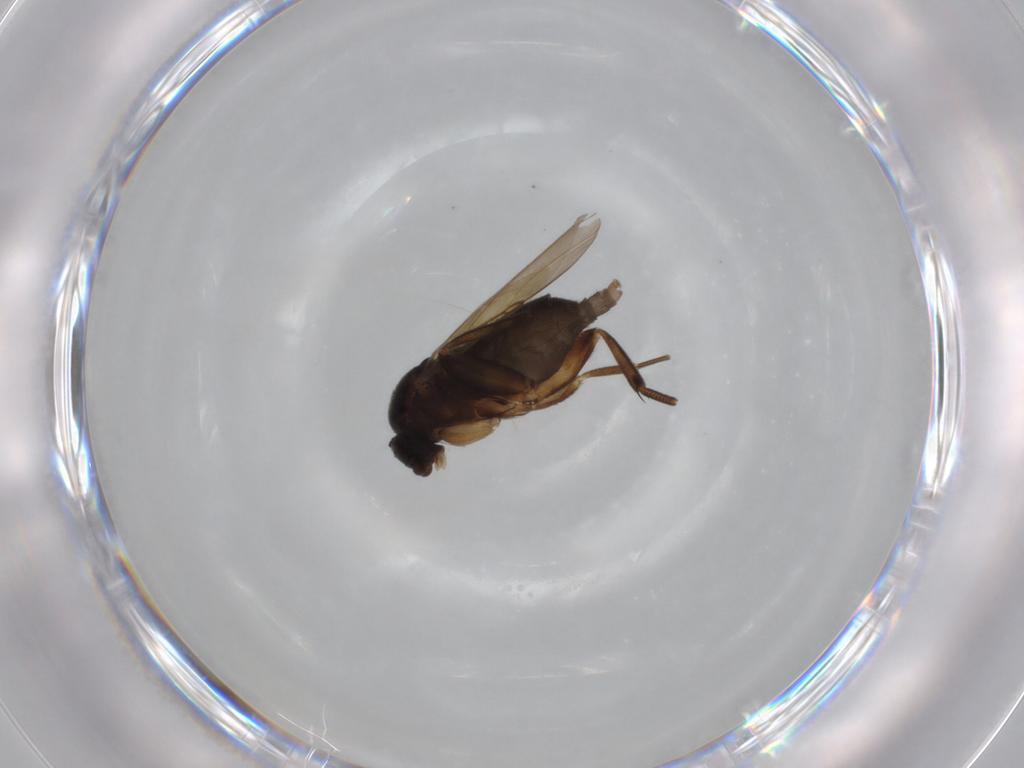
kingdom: Animalia
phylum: Arthropoda
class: Insecta
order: Diptera
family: Phoridae
